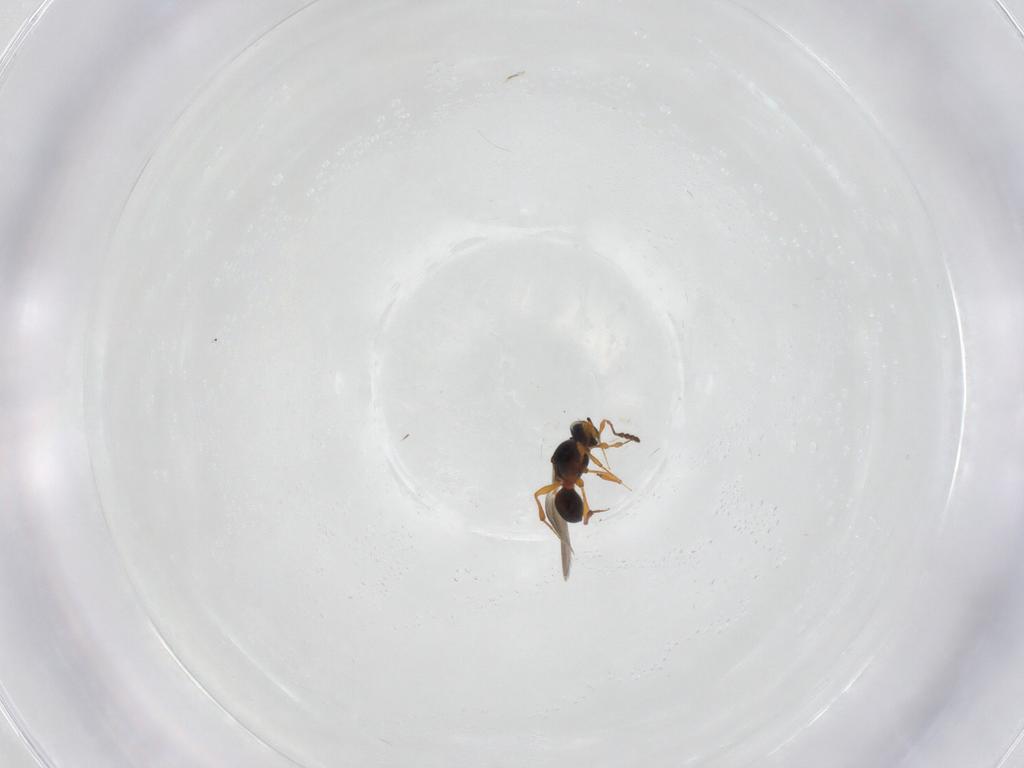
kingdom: Animalia
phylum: Arthropoda
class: Insecta
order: Hymenoptera
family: Platygastridae
